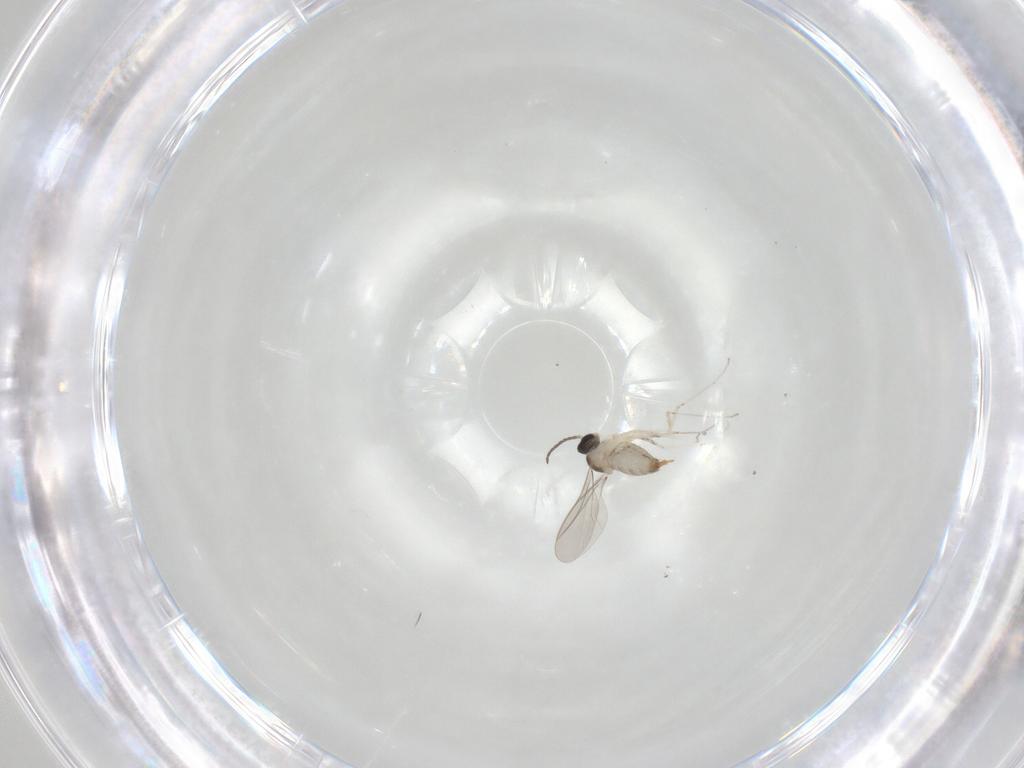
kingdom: Animalia
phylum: Arthropoda
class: Insecta
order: Diptera
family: Cecidomyiidae
